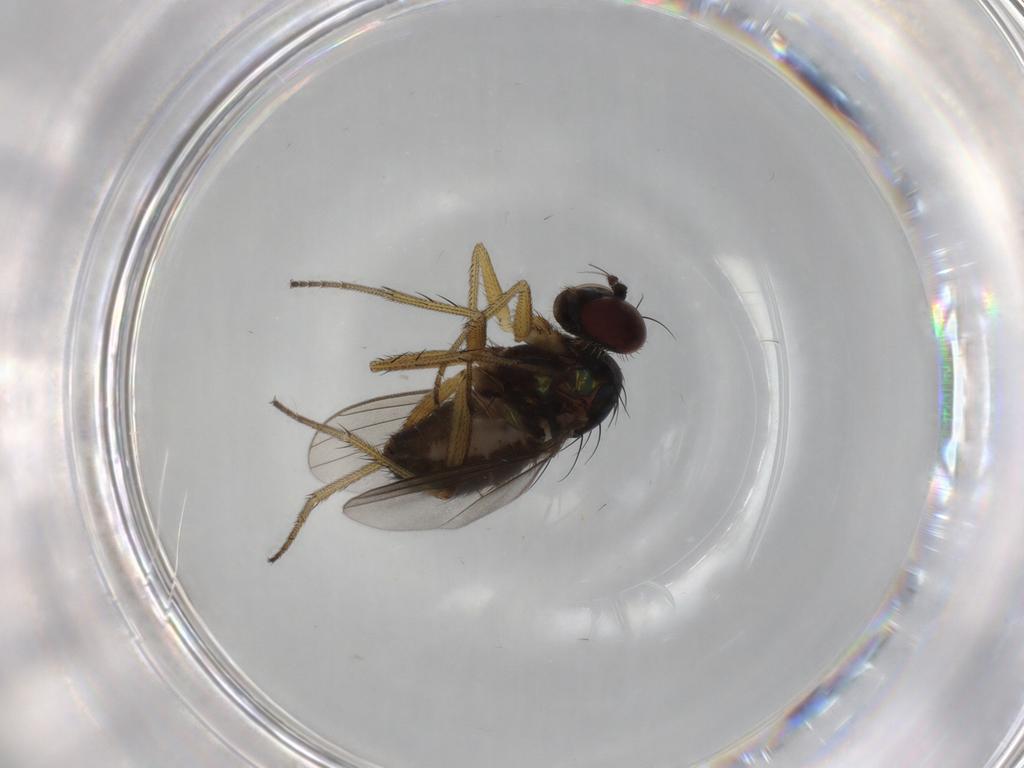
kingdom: Animalia
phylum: Arthropoda
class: Insecta
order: Diptera
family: Dolichopodidae
